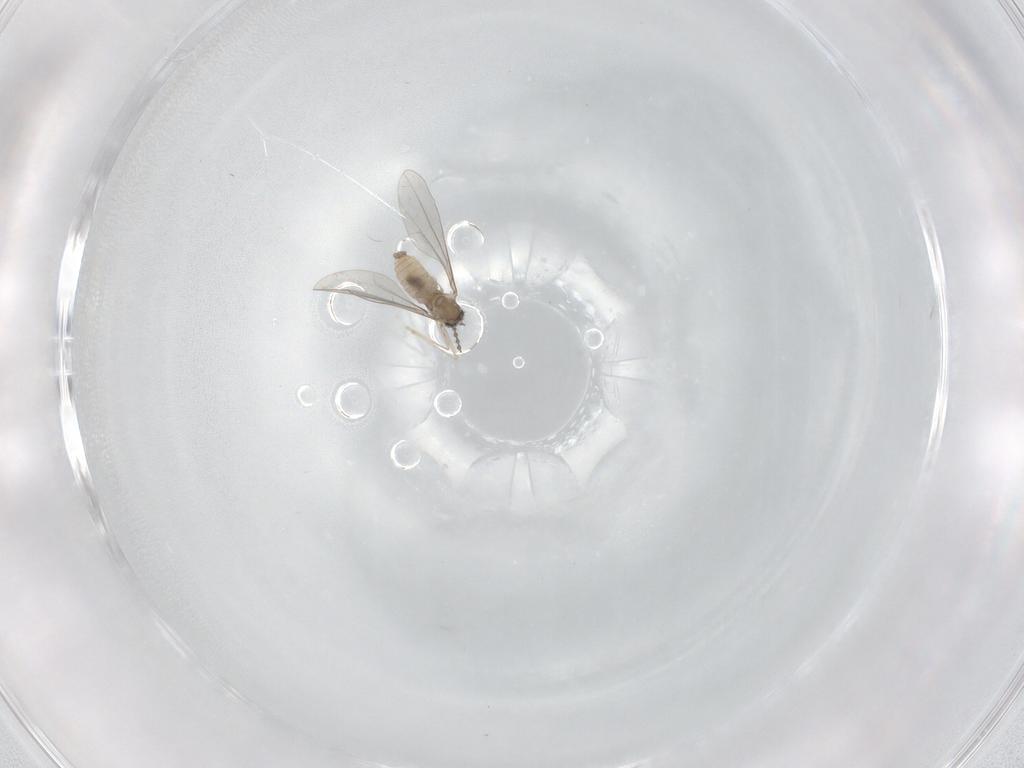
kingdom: Animalia
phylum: Arthropoda
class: Insecta
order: Diptera
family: Cecidomyiidae
